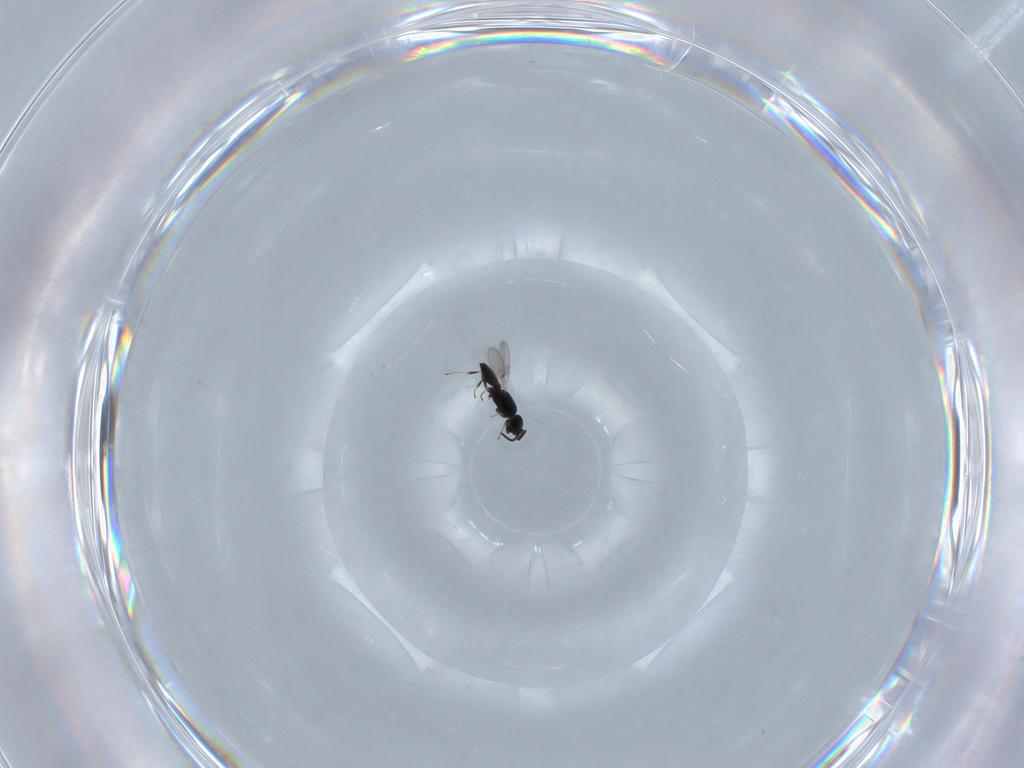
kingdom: Animalia
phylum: Arthropoda
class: Insecta
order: Hymenoptera
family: Scelionidae
